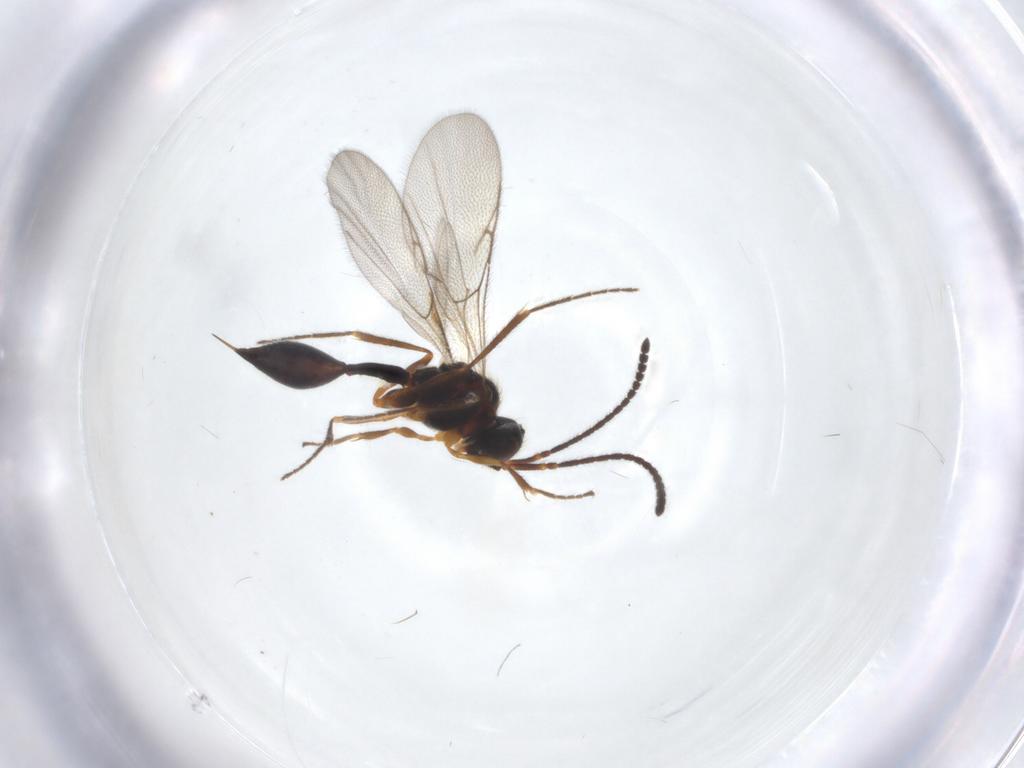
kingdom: Animalia
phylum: Arthropoda
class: Insecta
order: Hymenoptera
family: Diapriidae
